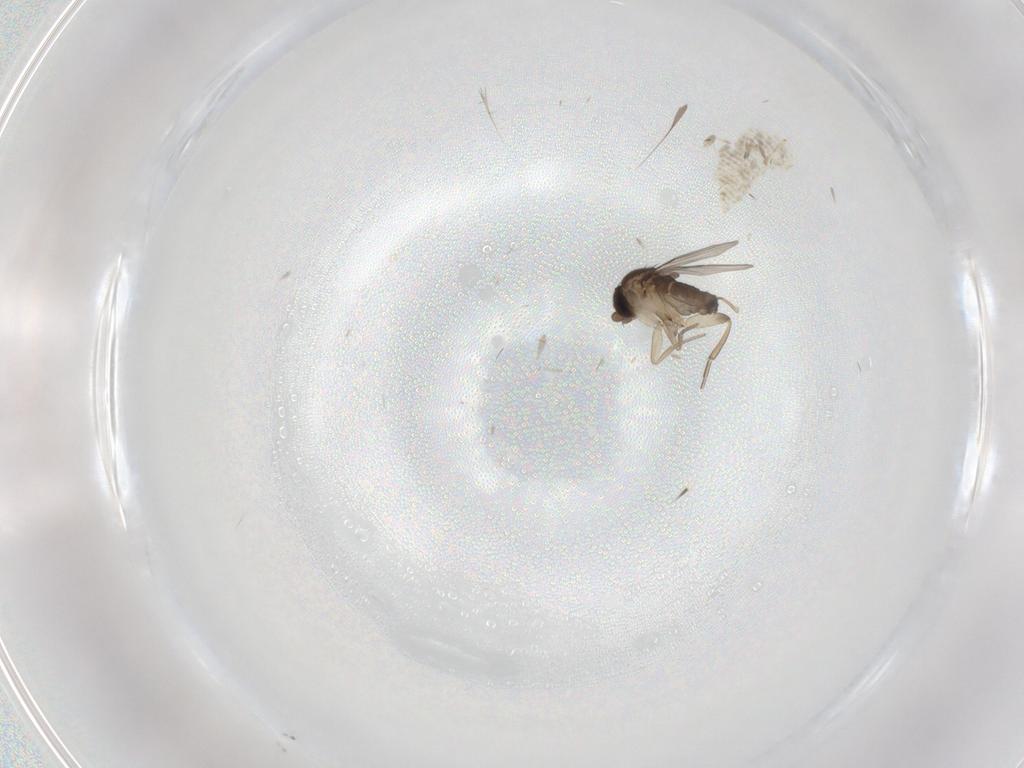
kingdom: Animalia
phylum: Arthropoda
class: Insecta
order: Diptera
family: Phoridae
